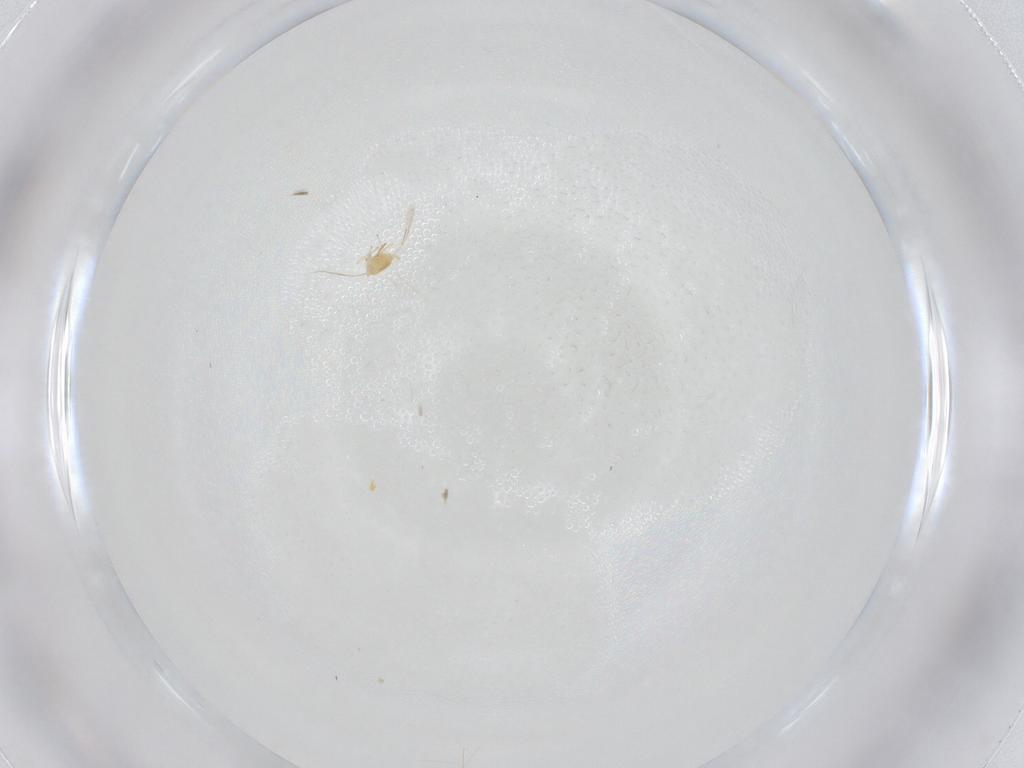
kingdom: Animalia
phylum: Arthropoda
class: Insecta
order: Hymenoptera
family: Aphelinidae
